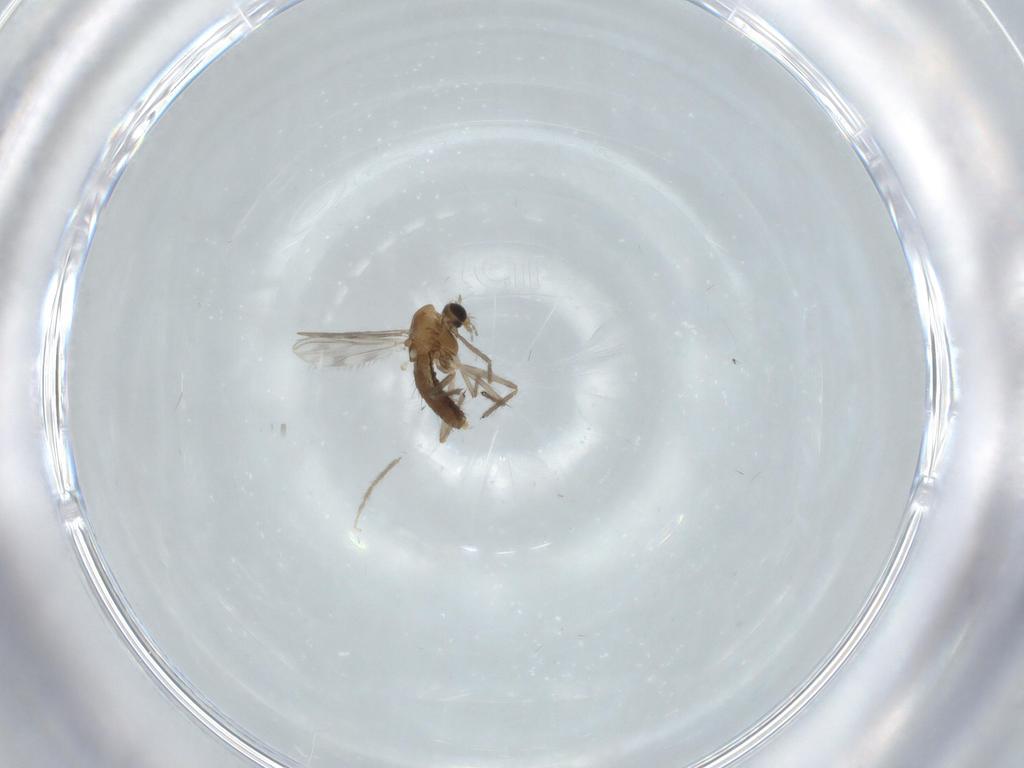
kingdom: Animalia
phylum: Arthropoda
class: Insecta
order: Diptera
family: Chironomidae
